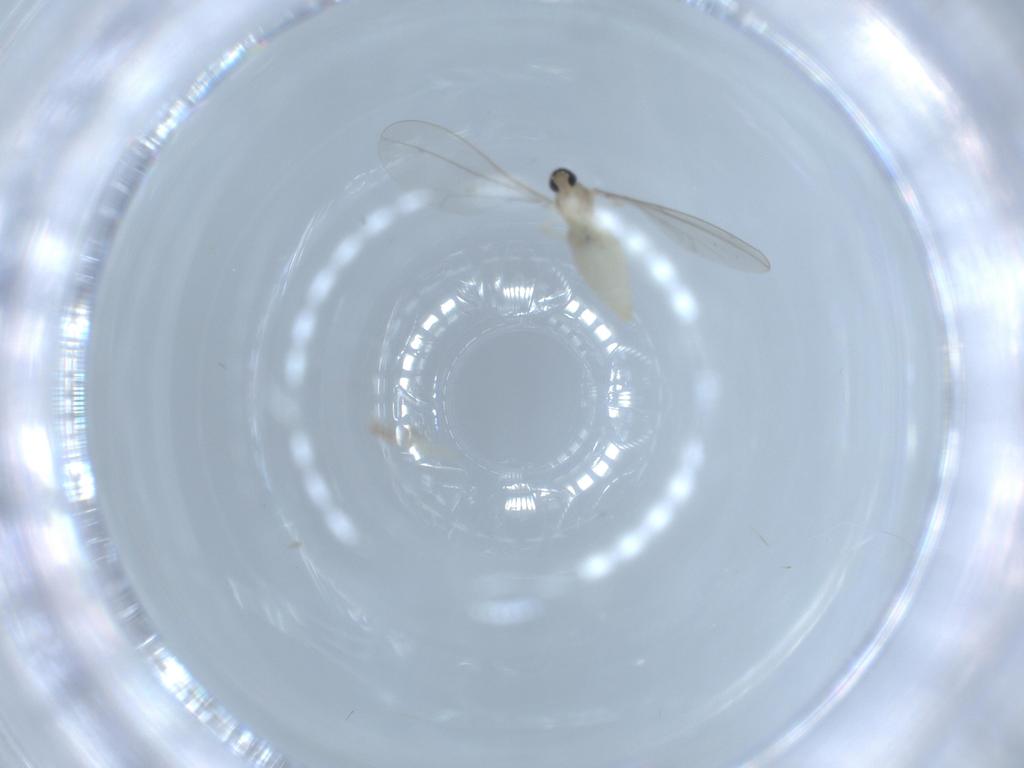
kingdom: Animalia
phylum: Arthropoda
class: Insecta
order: Diptera
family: Cecidomyiidae
